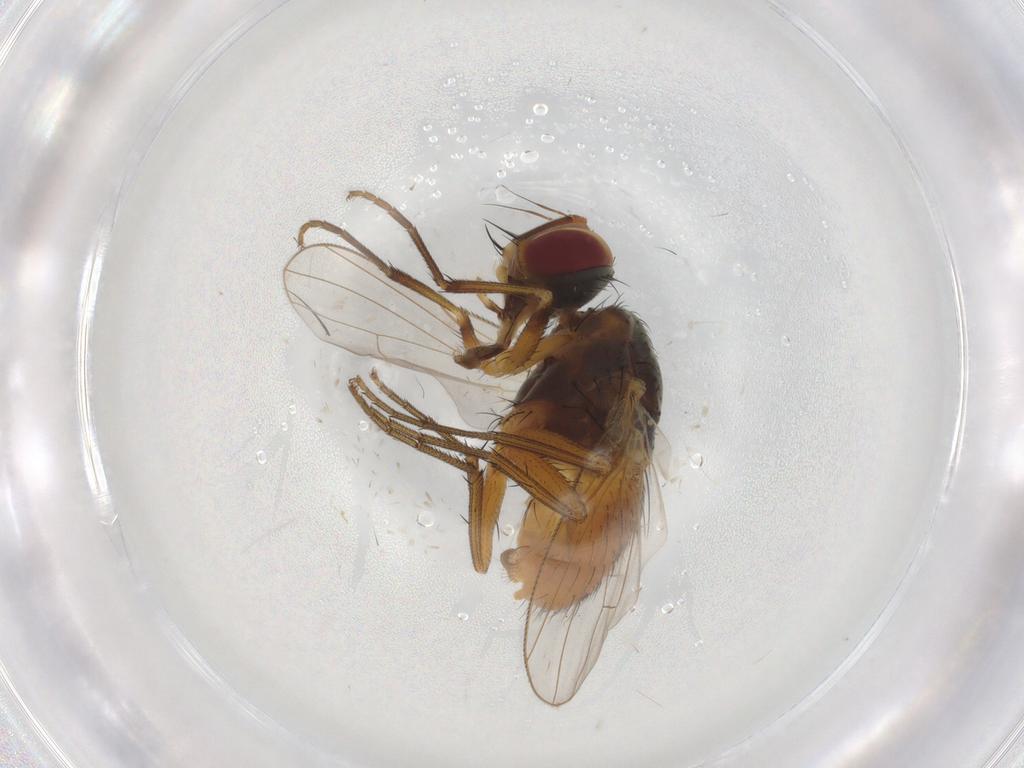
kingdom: Animalia
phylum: Arthropoda
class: Insecta
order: Diptera
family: Muscidae
